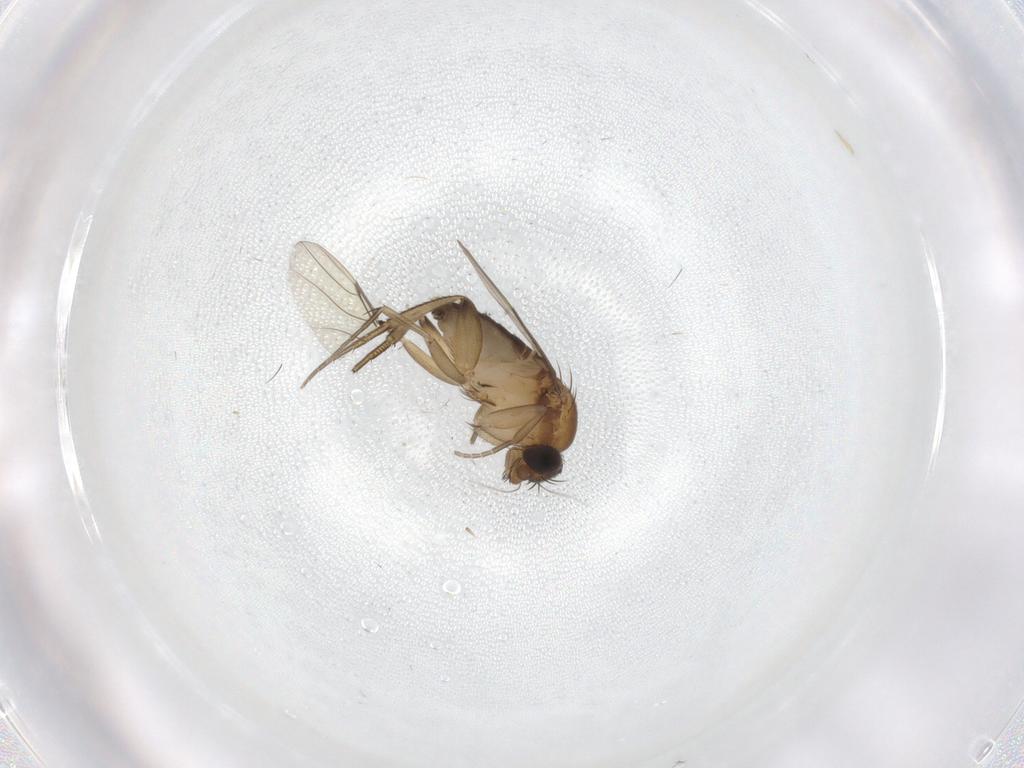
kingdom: Animalia
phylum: Arthropoda
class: Insecta
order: Diptera
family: Phoridae
